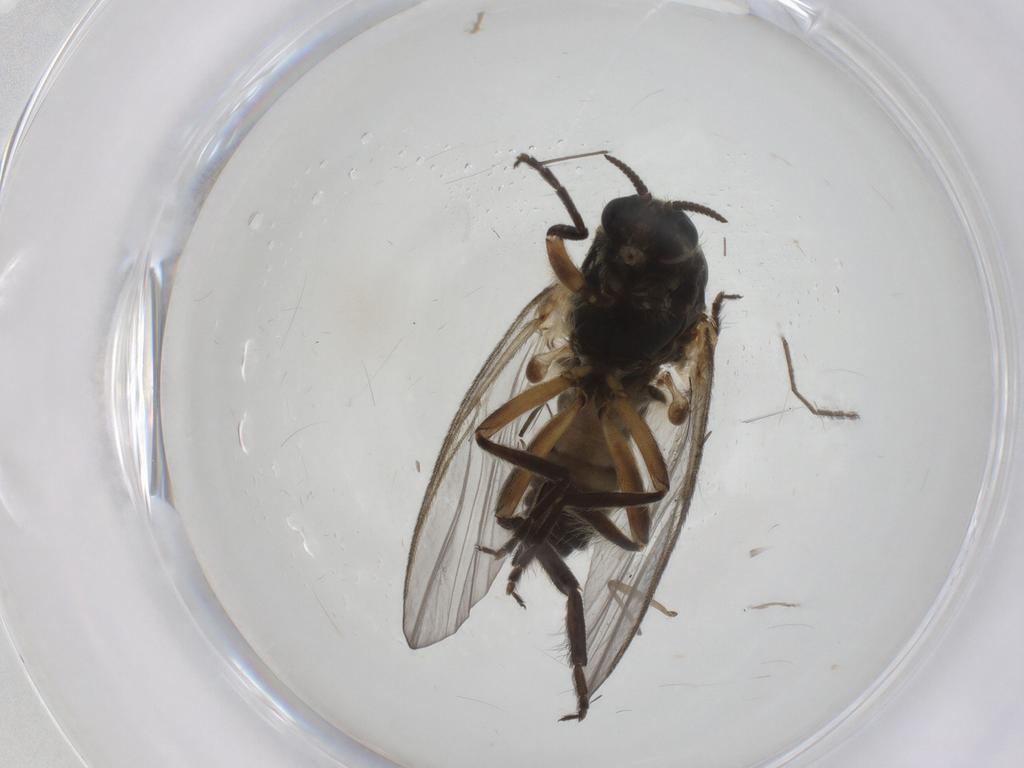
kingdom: Animalia
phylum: Arthropoda
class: Insecta
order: Diptera
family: Simuliidae
